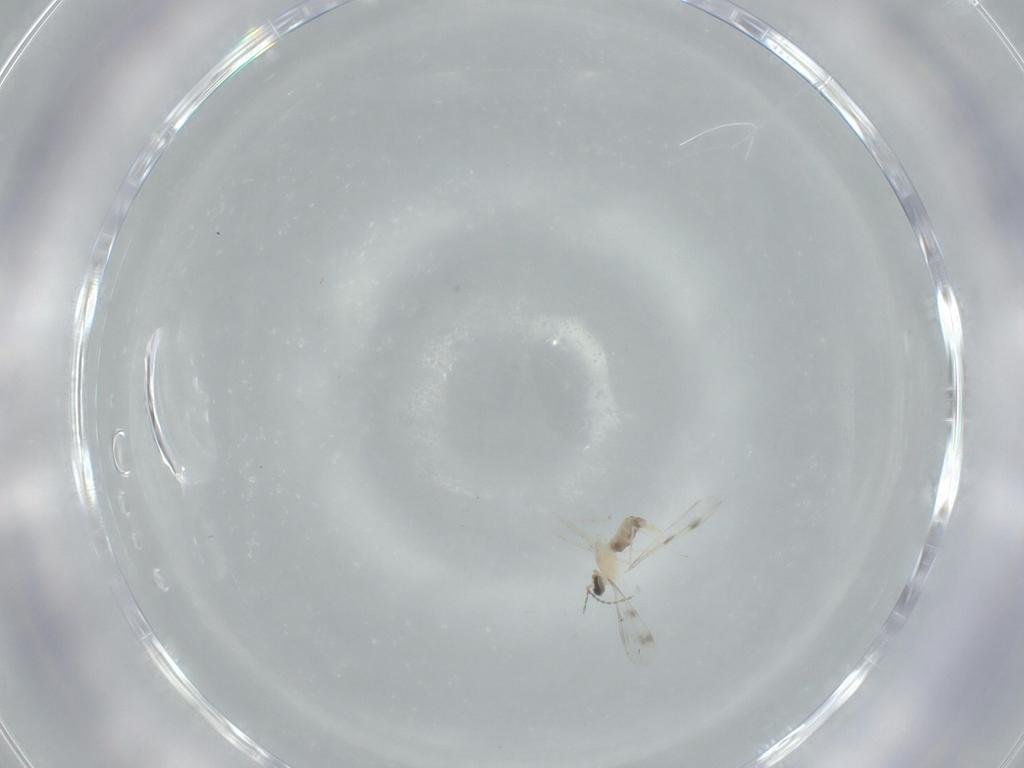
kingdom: Animalia
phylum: Arthropoda
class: Insecta
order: Diptera
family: Cecidomyiidae
